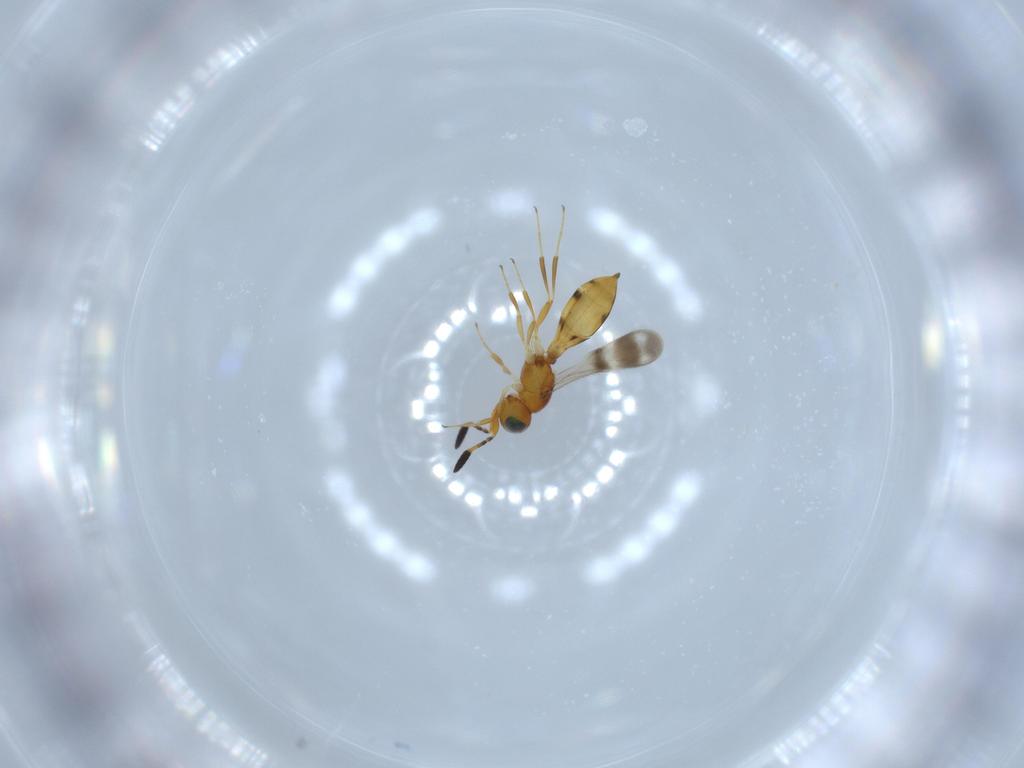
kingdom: Animalia
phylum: Arthropoda
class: Insecta
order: Hymenoptera
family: Scelionidae
